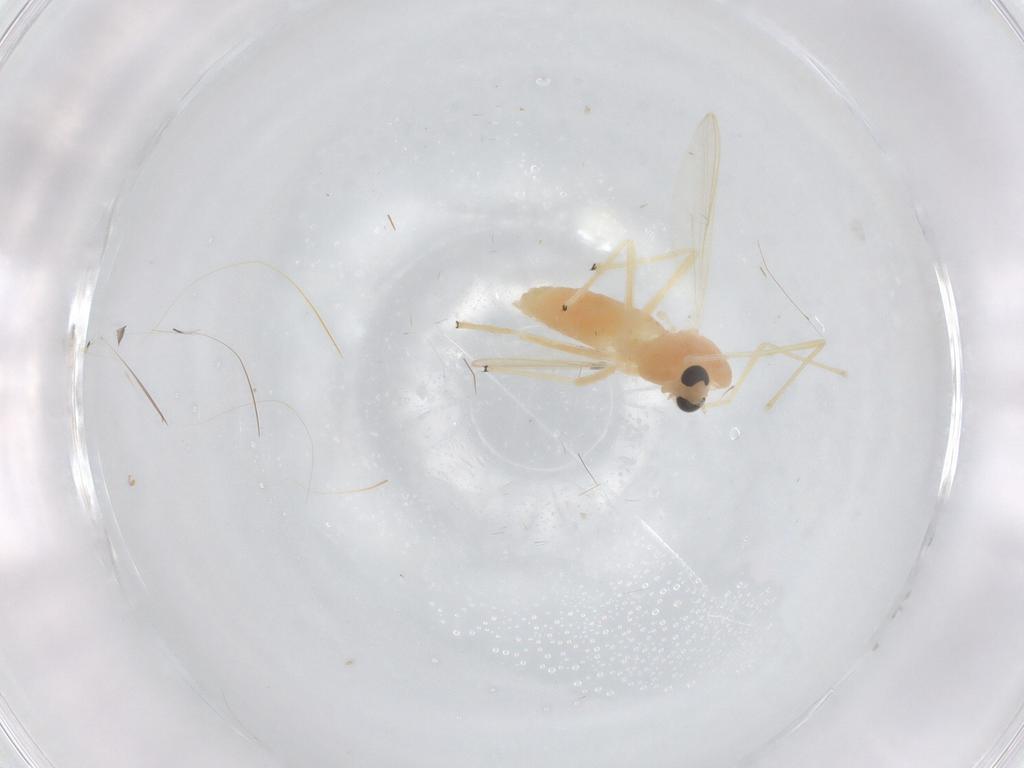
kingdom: Animalia
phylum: Arthropoda
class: Insecta
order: Diptera
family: Chironomidae
